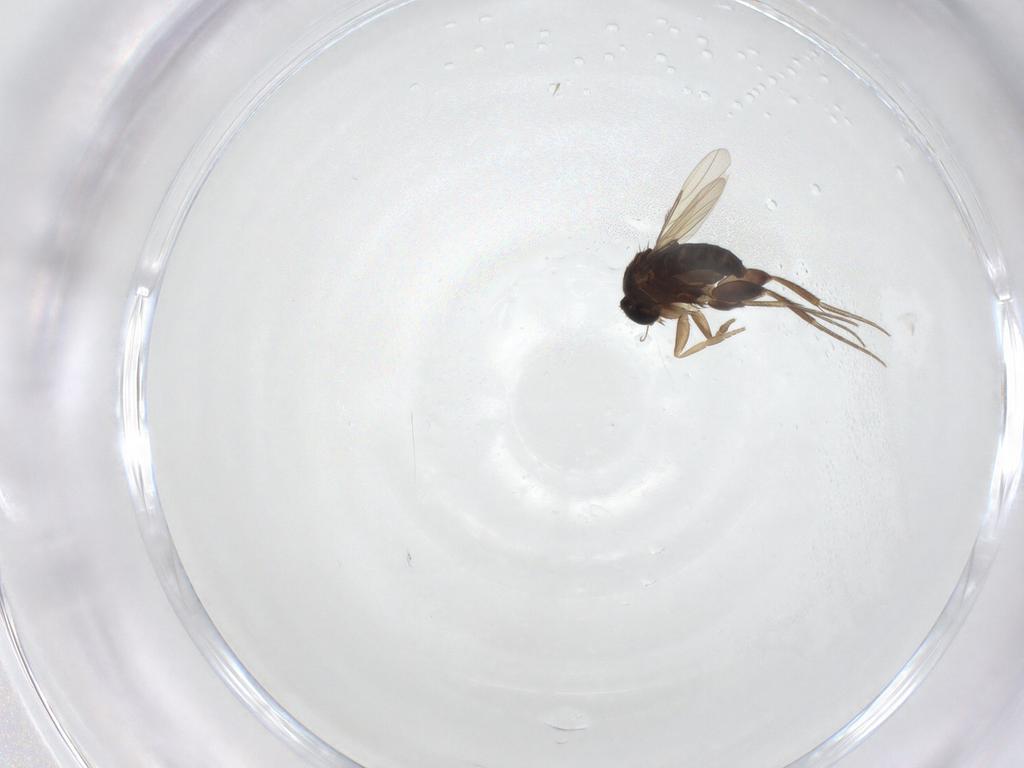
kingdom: Animalia
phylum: Arthropoda
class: Insecta
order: Diptera
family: Phoridae
